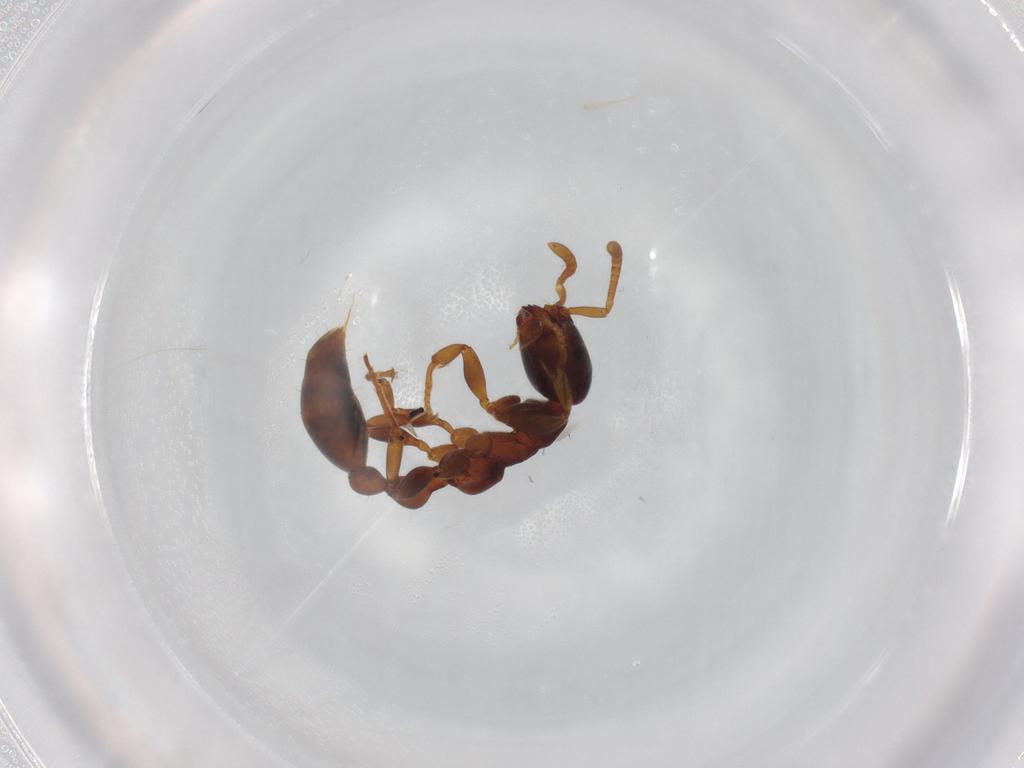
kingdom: Animalia
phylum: Arthropoda
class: Insecta
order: Hymenoptera
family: Formicidae
